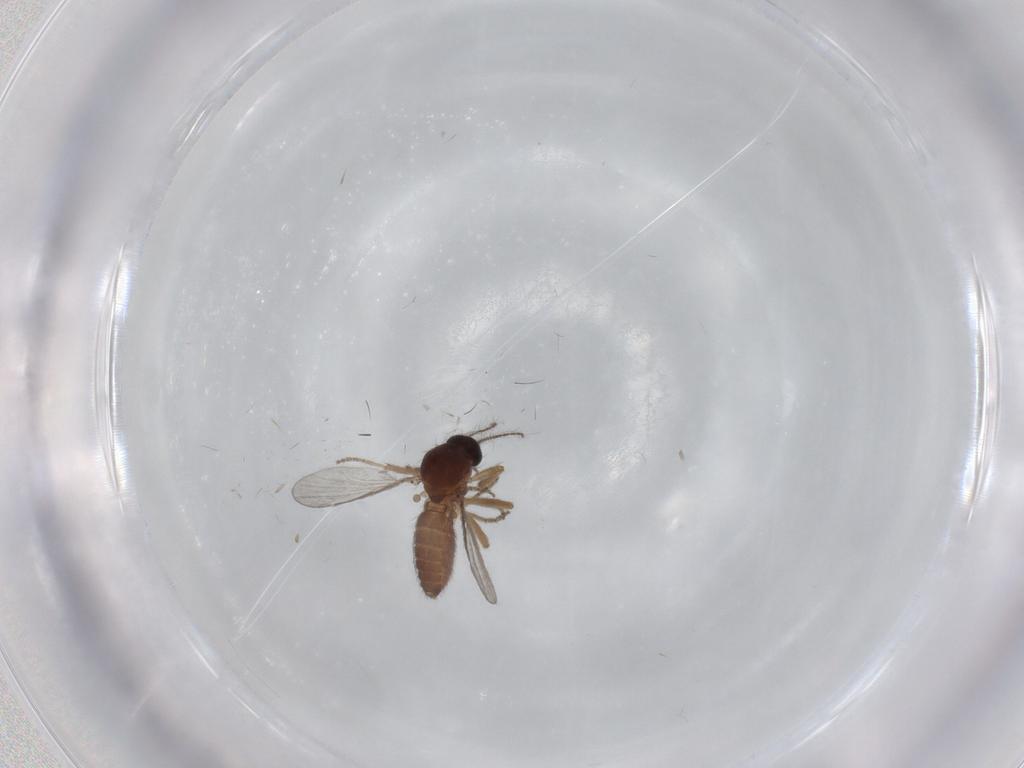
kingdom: Animalia
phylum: Arthropoda
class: Insecta
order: Diptera
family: Ceratopogonidae
